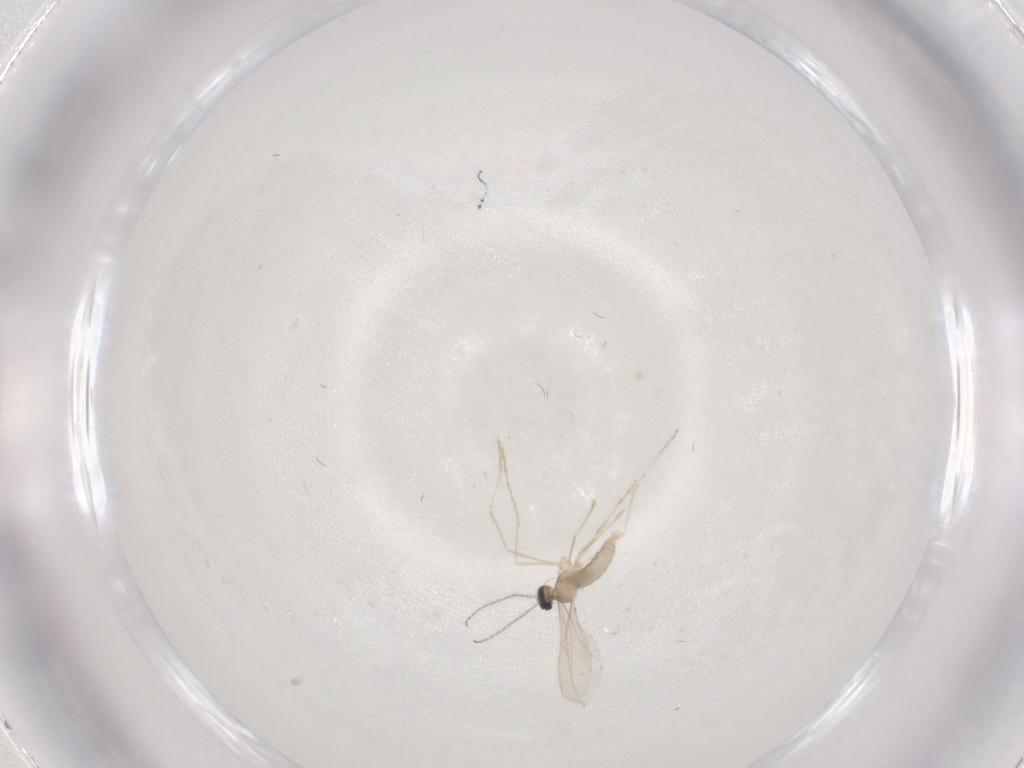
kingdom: Animalia
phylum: Arthropoda
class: Insecta
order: Diptera
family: Cecidomyiidae
